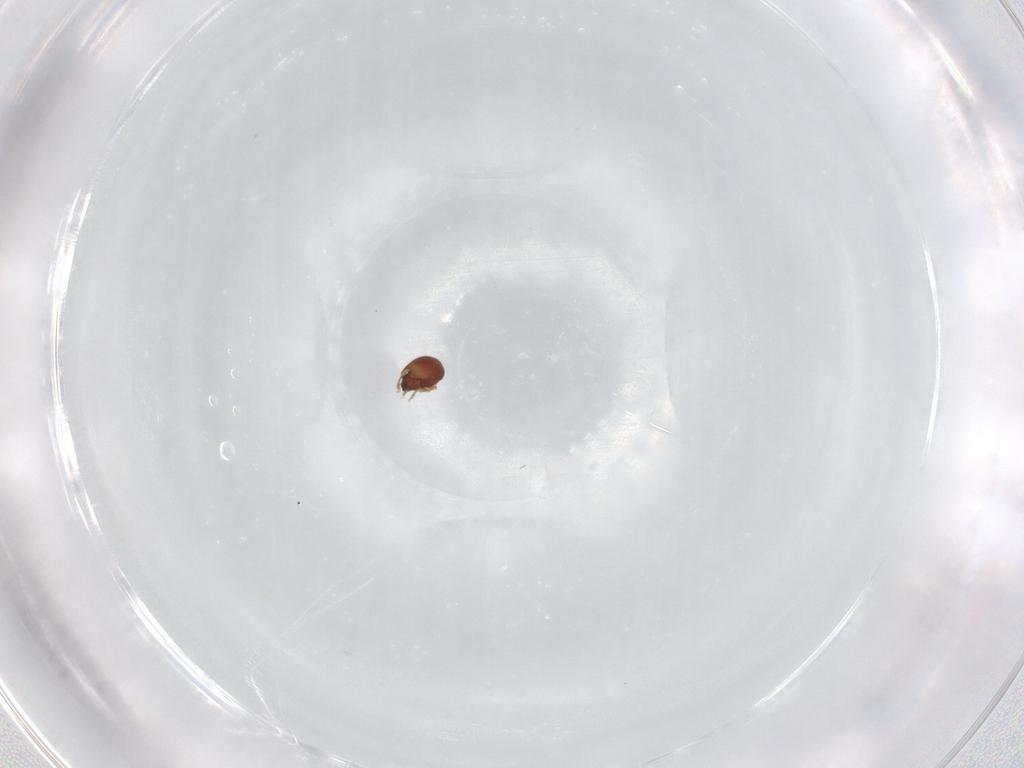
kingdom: Animalia
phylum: Arthropoda
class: Arachnida
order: Sarcoptiformes
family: Tegoribatidae
